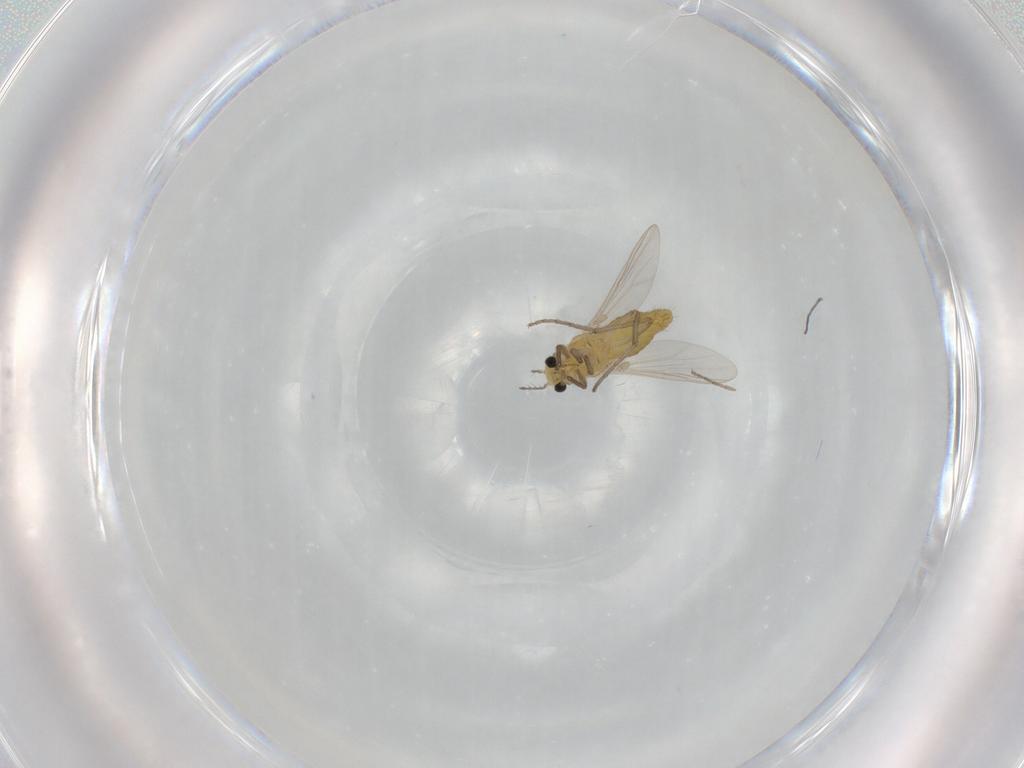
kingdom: Animalia
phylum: Arthropoda
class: Insecta
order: Diptera
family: Chironomidae
